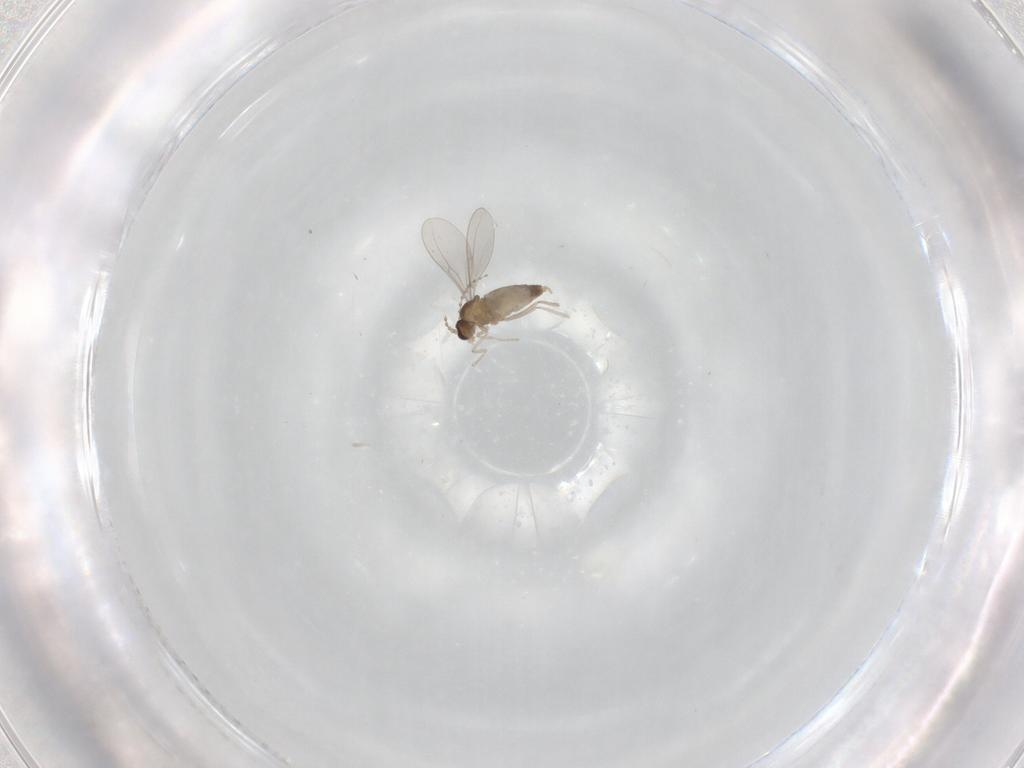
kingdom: Animalia
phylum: Arthropoda
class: Insecta
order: Diptera
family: Cecidomyiidae
